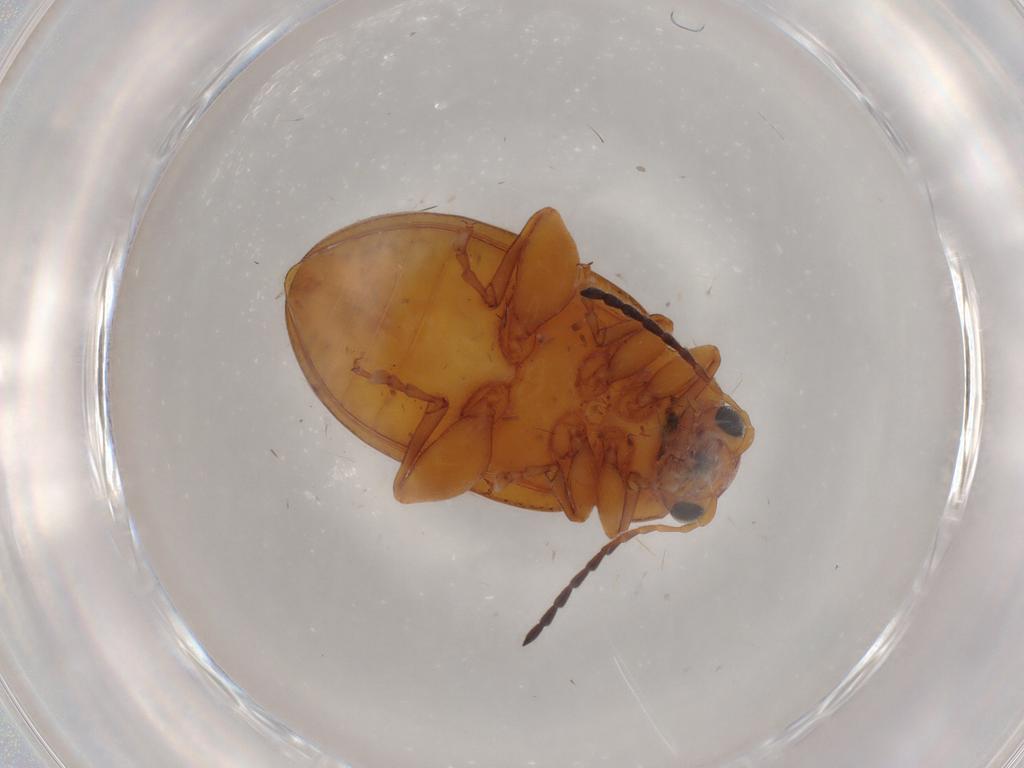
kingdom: Animalia
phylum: Arthropoda
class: Insecta
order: Coleoptera
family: Chrysomelidae
